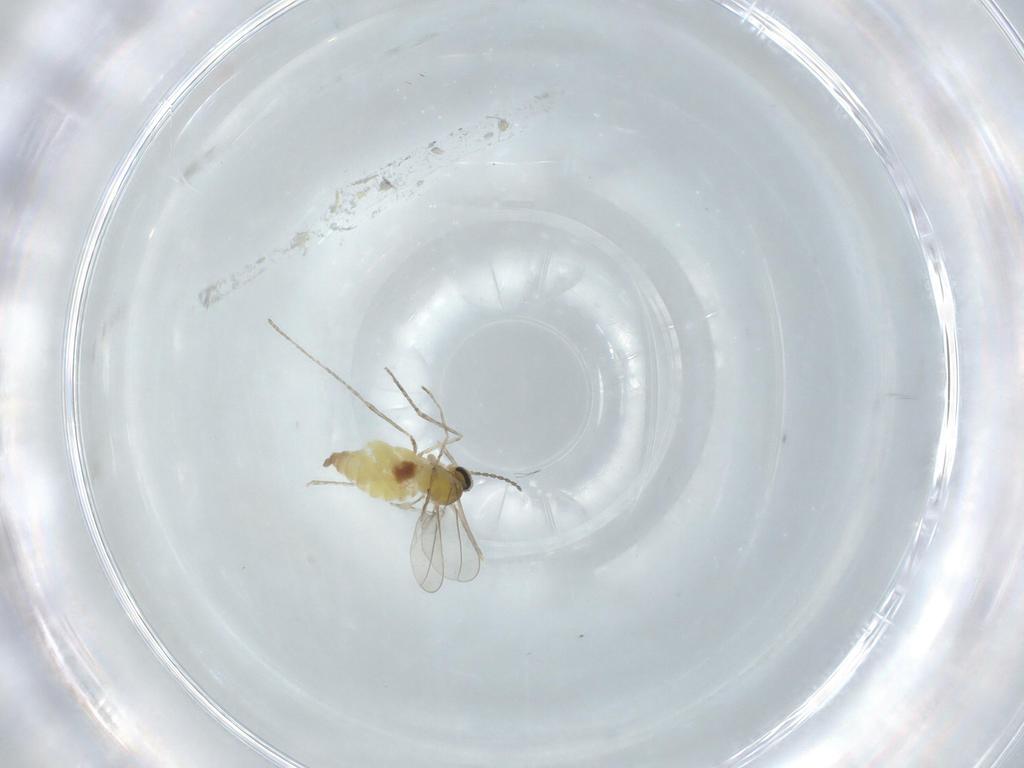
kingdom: Animalia
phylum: Arthropoda
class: Insecta
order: Diptera
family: Cecidomyiidae
